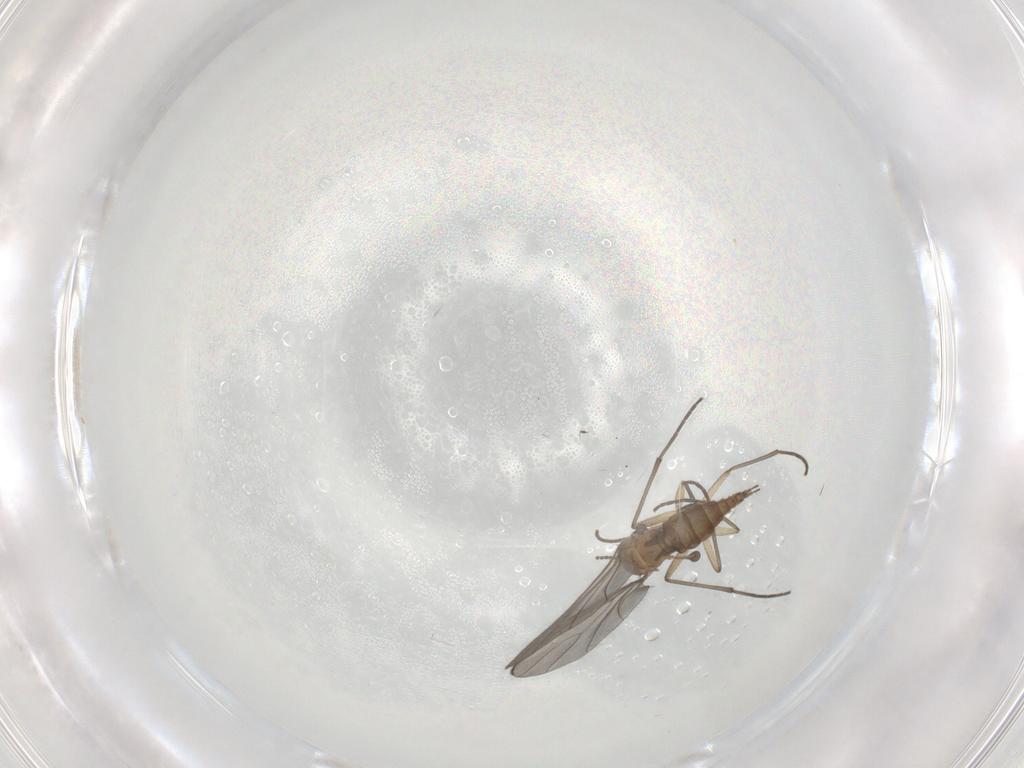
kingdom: Animalia
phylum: Arthropoda
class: Insecta
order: Diptera
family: Sciaridae
